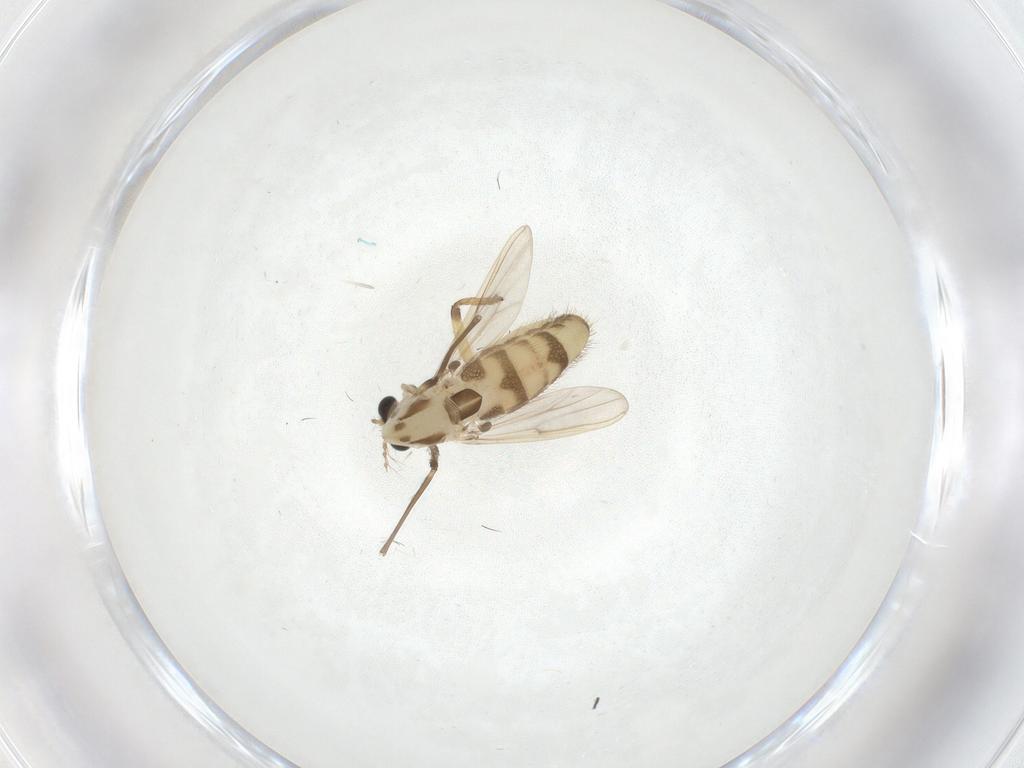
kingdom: Animalia
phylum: Arthropoda
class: Insecta
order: Diptera
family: Chironomidae
